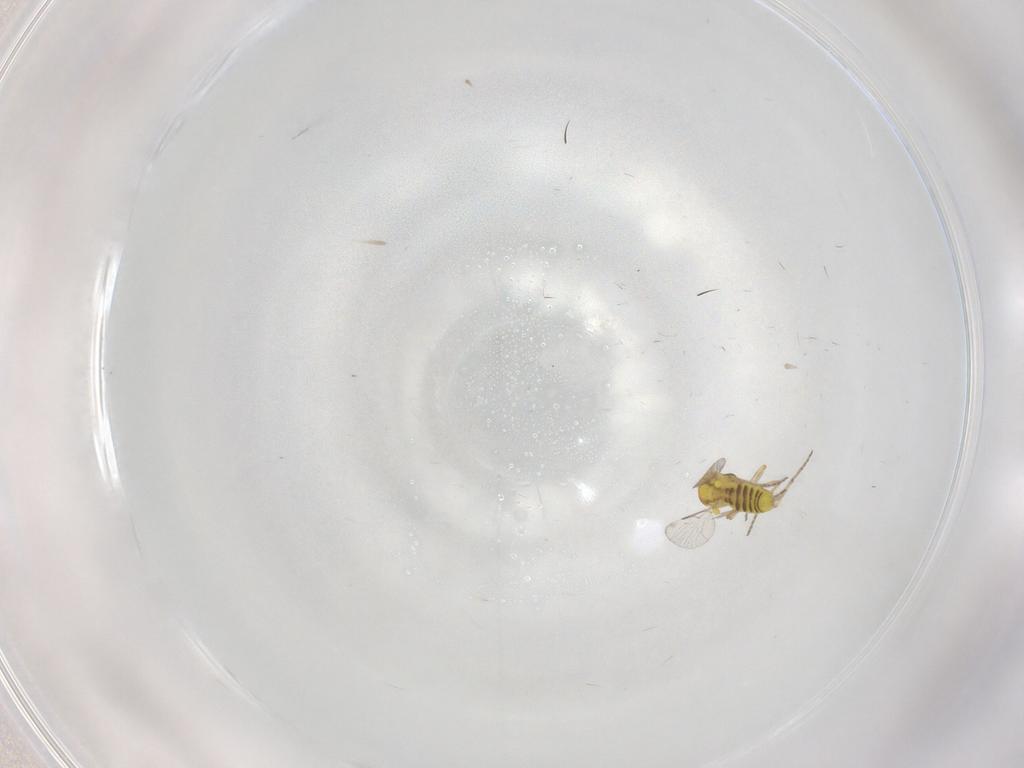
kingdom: Animalia
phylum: Arthropoda
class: Insecta
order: Diptera
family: Ceratopogonidae
